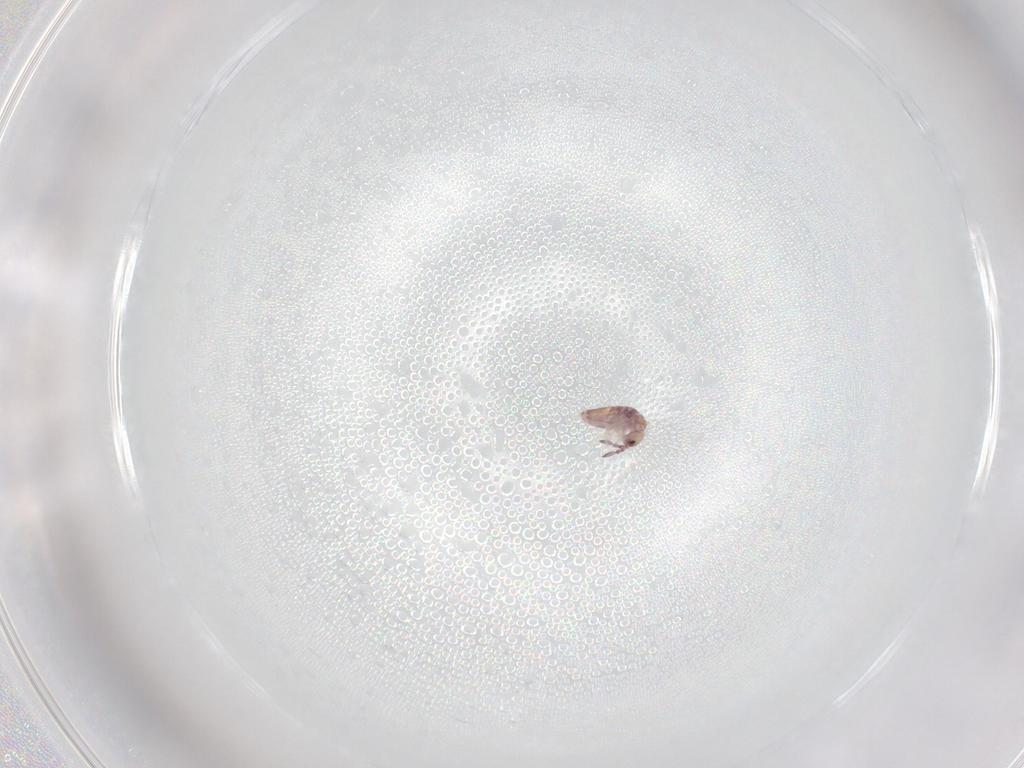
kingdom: Animalia
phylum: Arthropoda
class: Collembola
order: Entomobryomorpha
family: Entomobryidae
